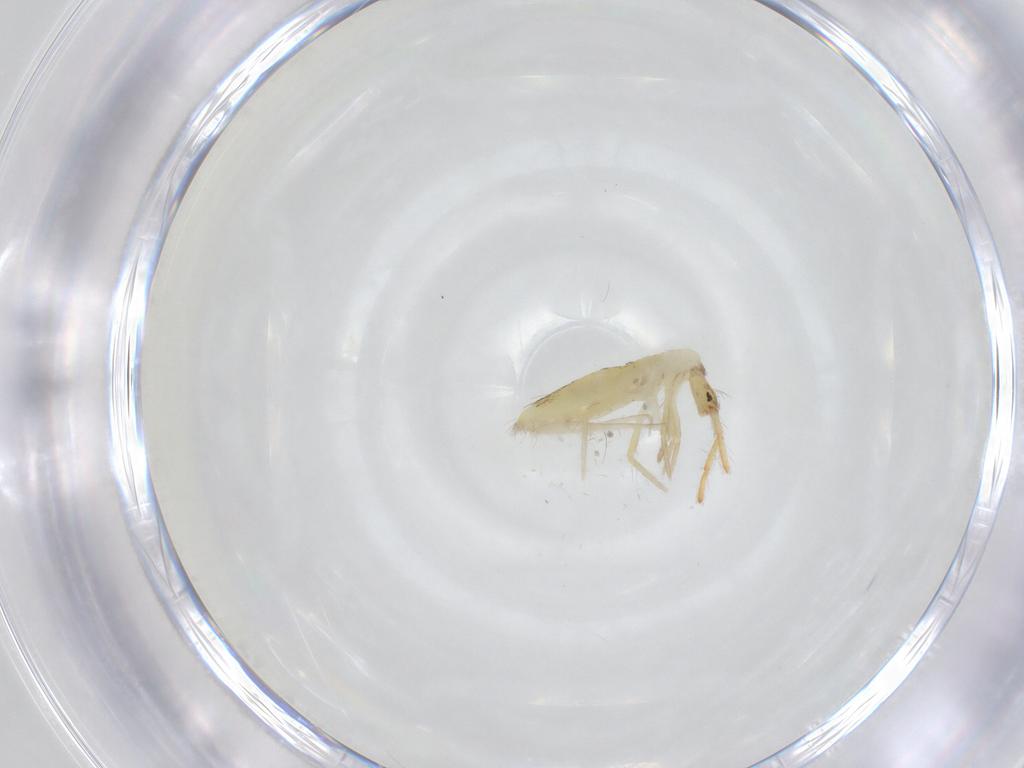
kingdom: Animalia
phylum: Arthropoda
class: Collembola
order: Entomobryomorpha
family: Entomobryidae
